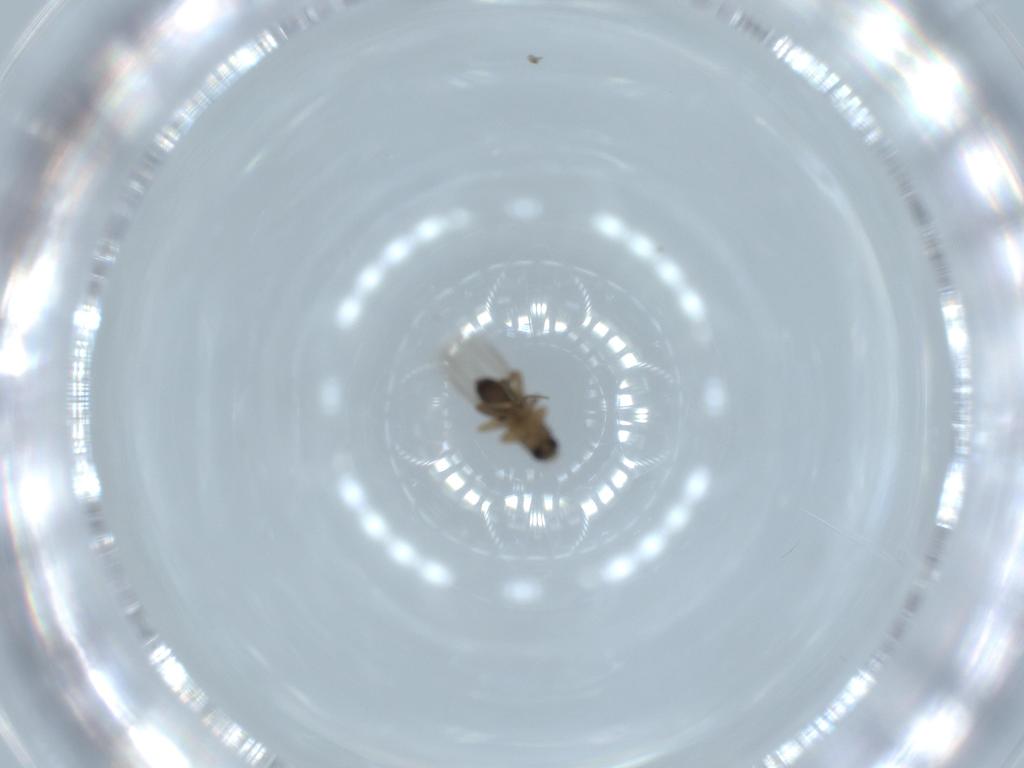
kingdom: Animalia
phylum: Arthropoda
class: Insecta
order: Diptera
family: Phoridae
